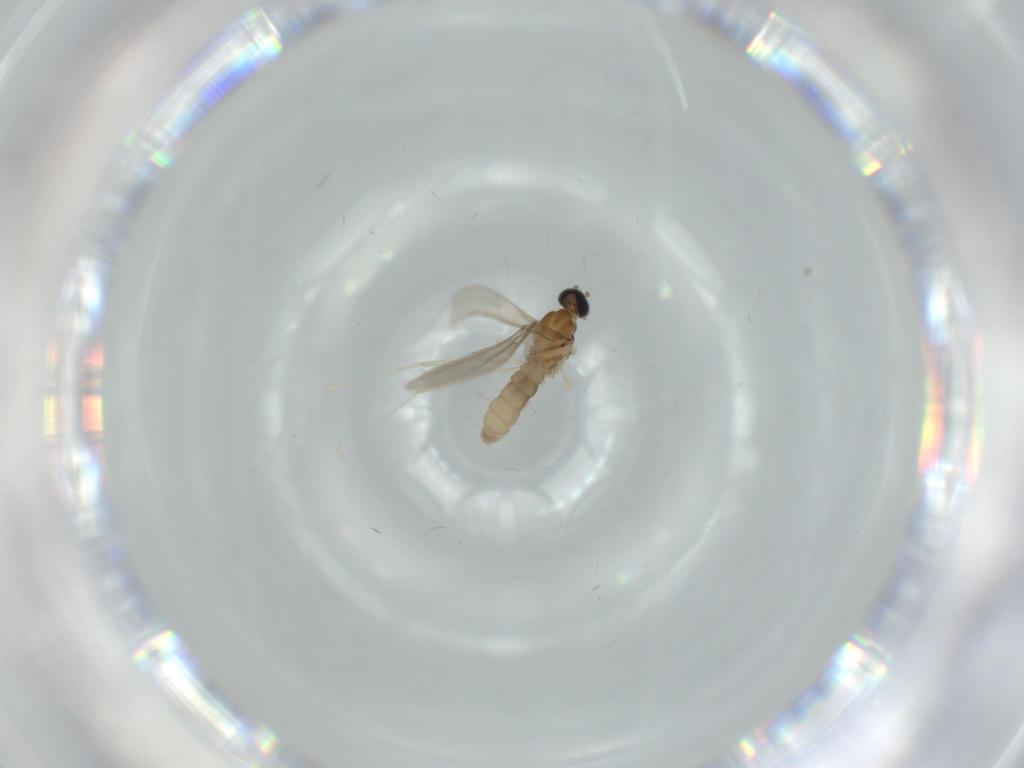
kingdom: Animalia
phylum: Arthropoda
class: Insecta
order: Diptera
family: Cecidomyiidae
